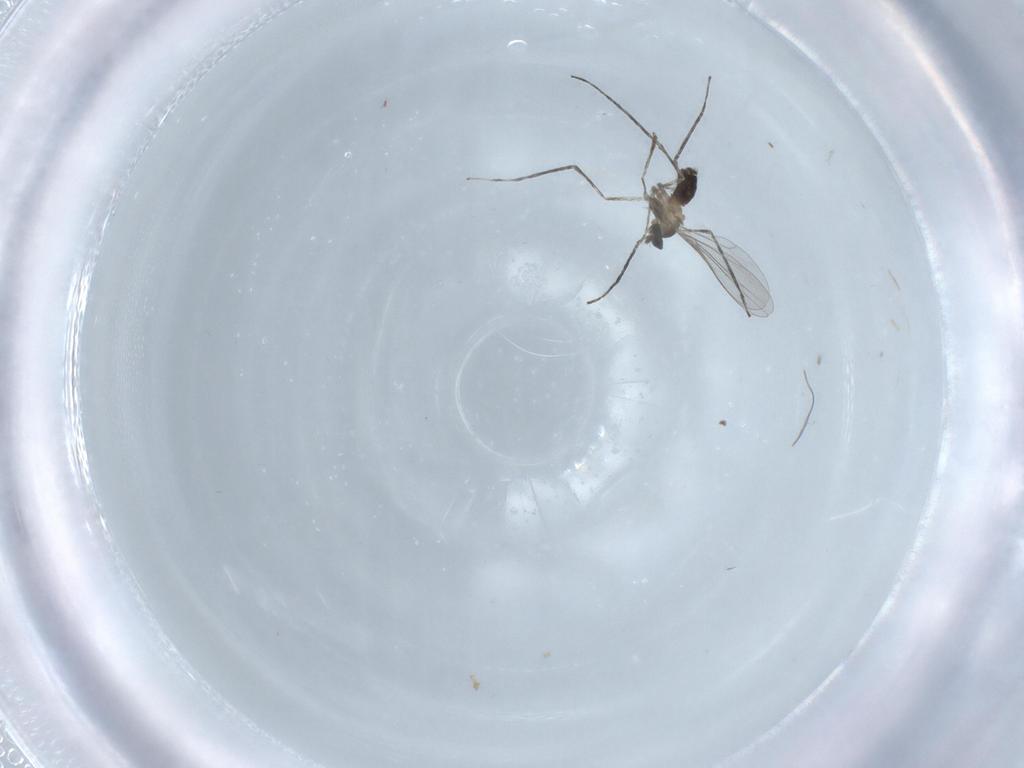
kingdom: Animalia
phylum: Arthropoda
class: Insecta
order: Diptera
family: Cecidomyiidae
